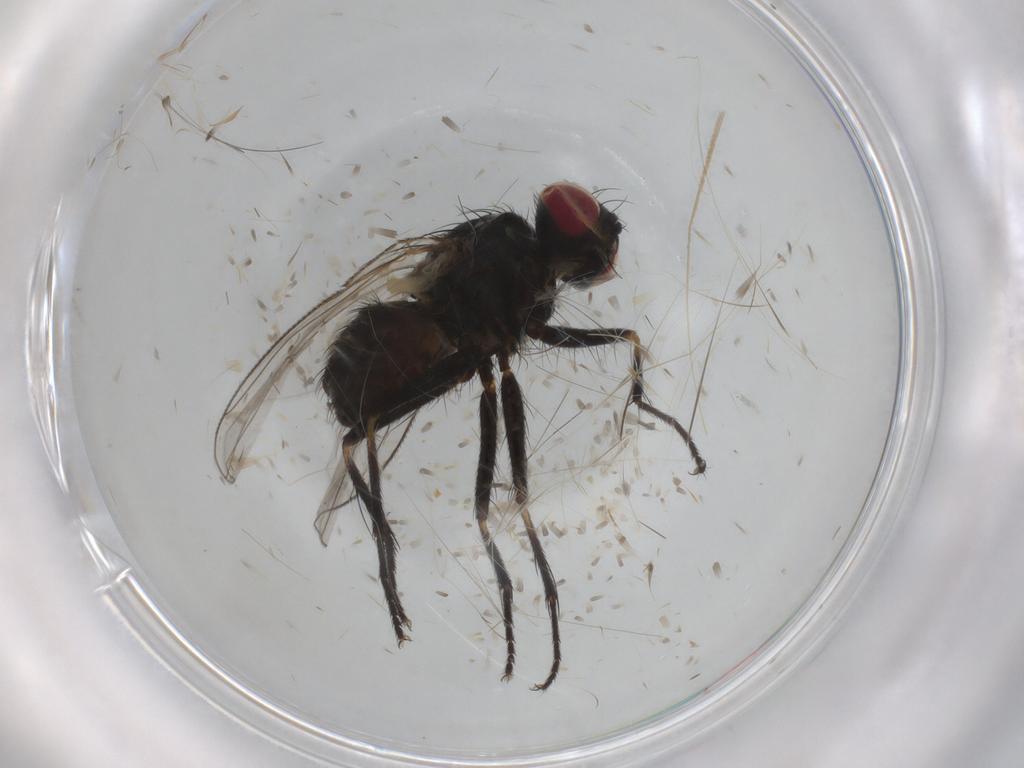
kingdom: Animalia
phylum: Arthropoda
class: Insecta
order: Diptera
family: Muscidae
